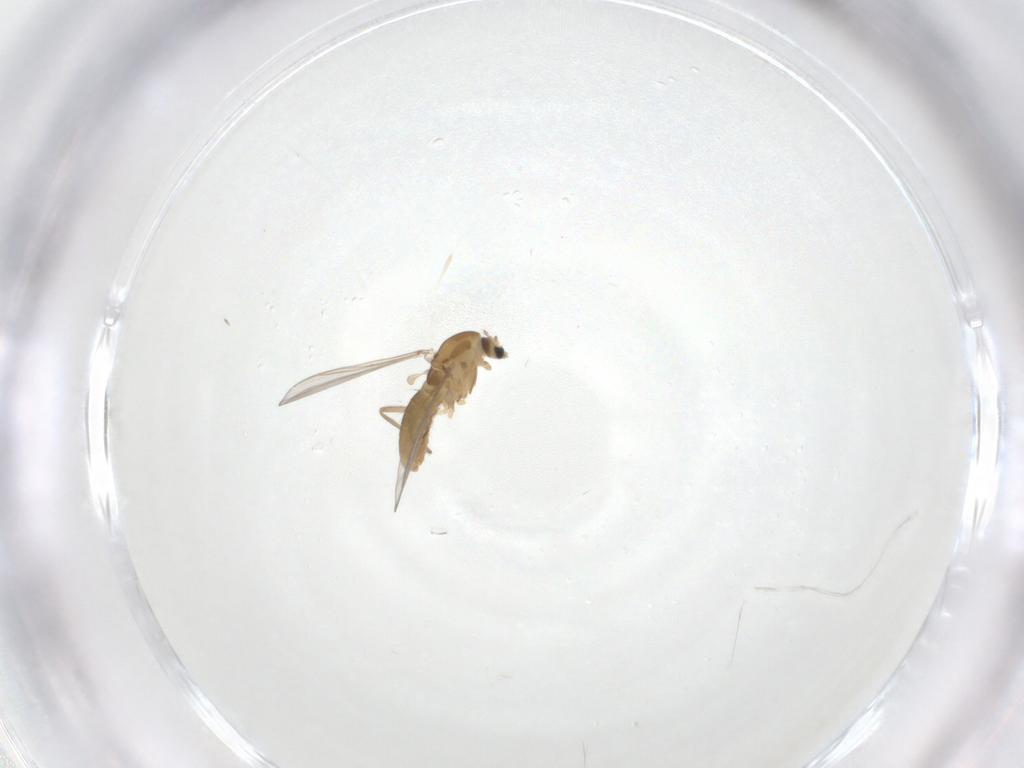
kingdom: Animalia
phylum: Arthropoda
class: Insecta
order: Diptera
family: Chironomidae
